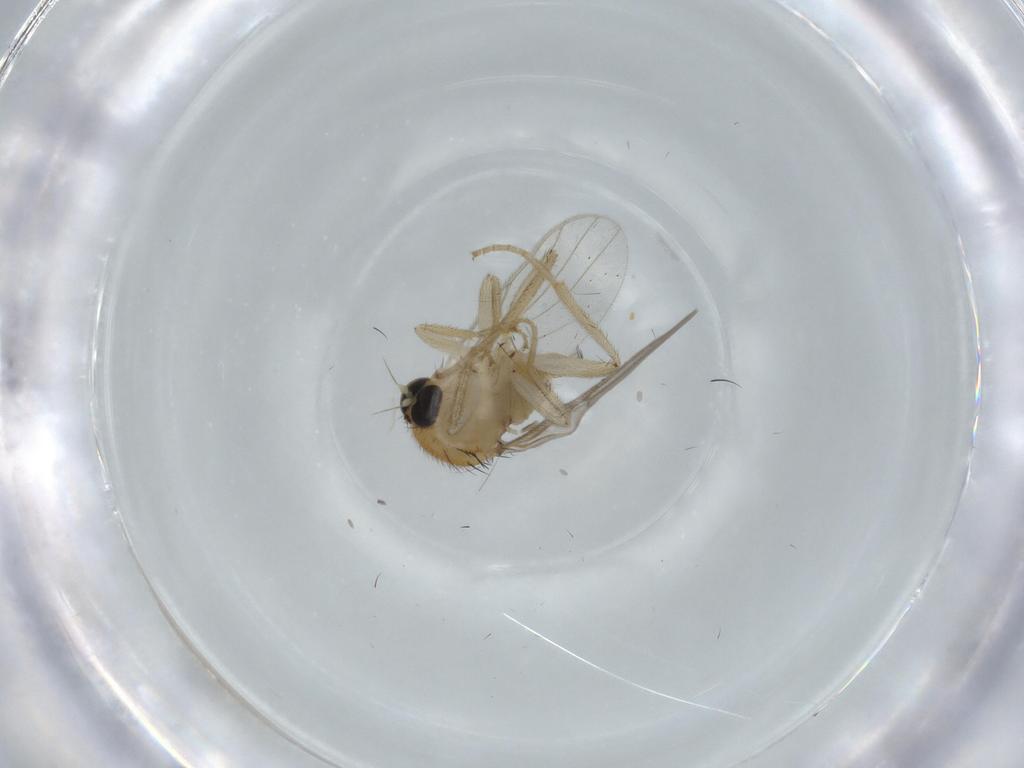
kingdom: Animalia
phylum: Arthropoda
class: Insecta
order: Diptera
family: Hybotidae
